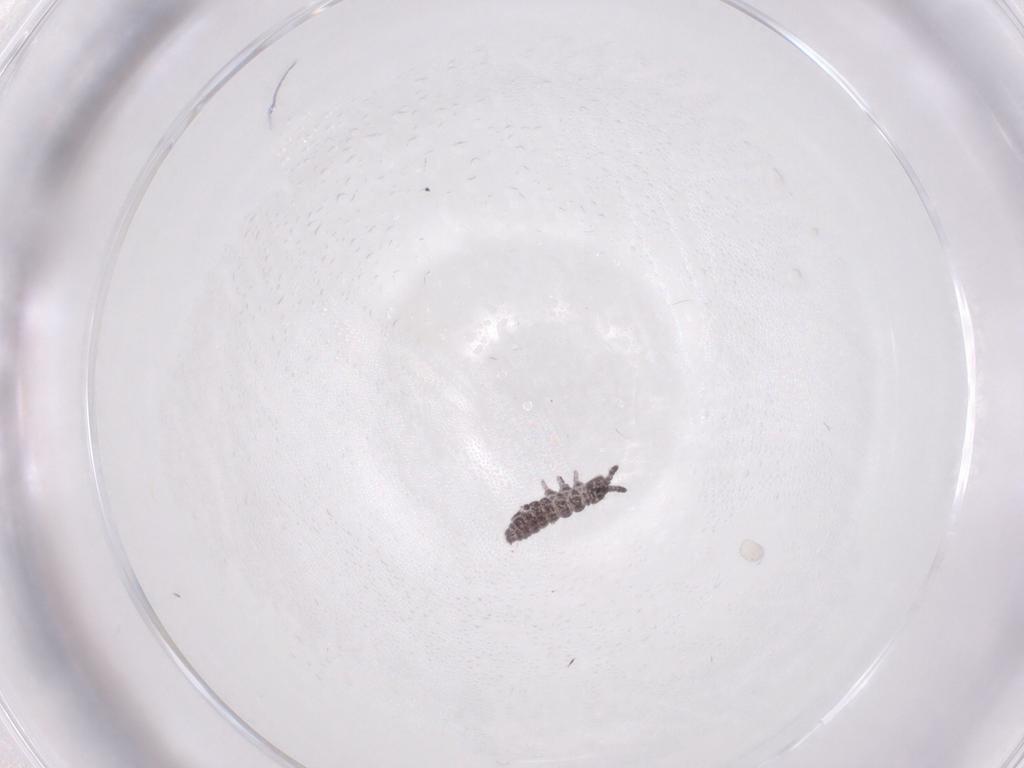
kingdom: Animalia
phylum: Arthropoda
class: Collembola
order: Poduromorpha
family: Hypogastruridae
